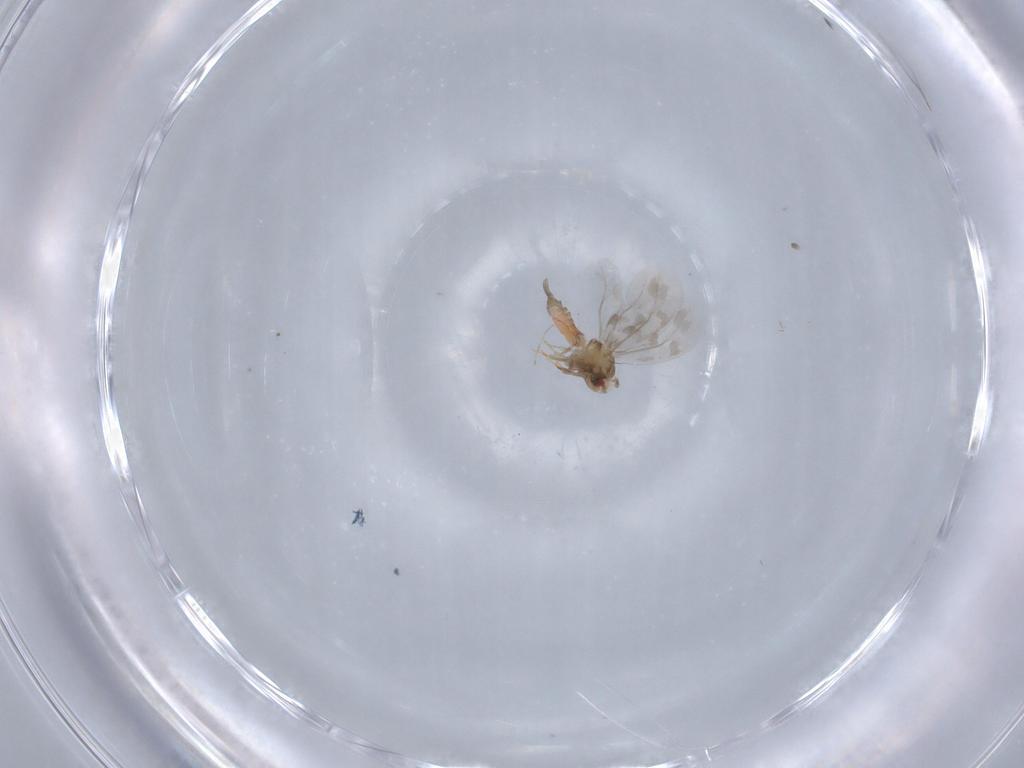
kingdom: Animalia
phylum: Arthropoda
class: Insecta
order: Hemiptera
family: Aleyrodidae
